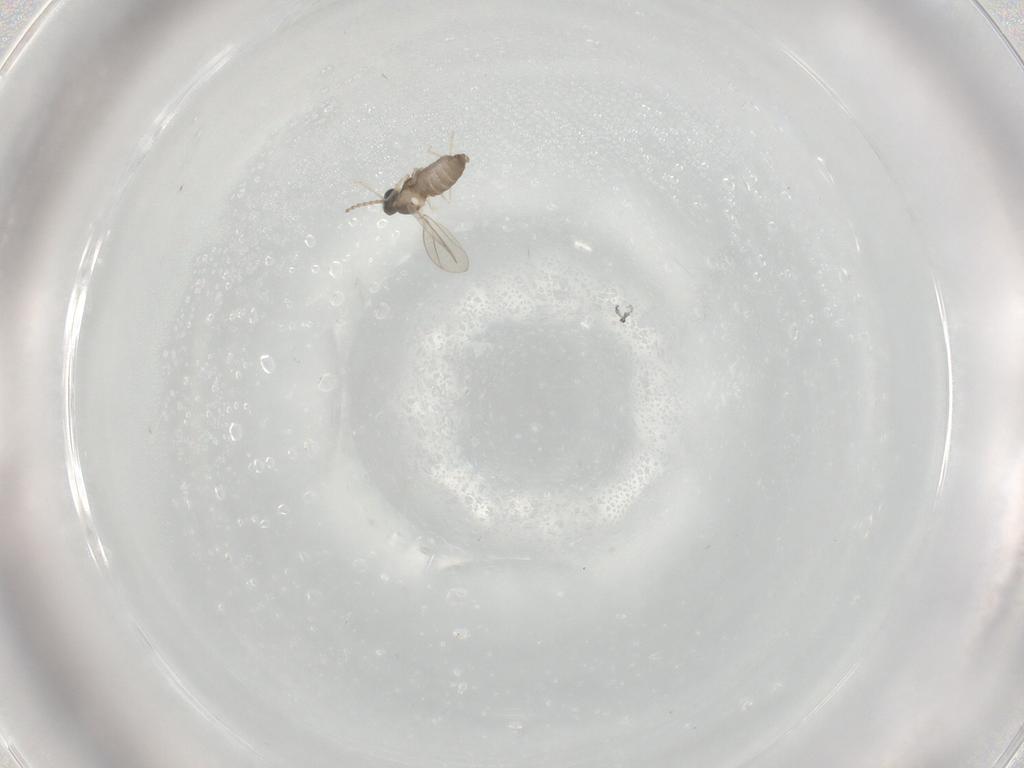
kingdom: Animalia
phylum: Arthropoda
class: Insecta
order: Diptera
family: Cecidomyiidae
